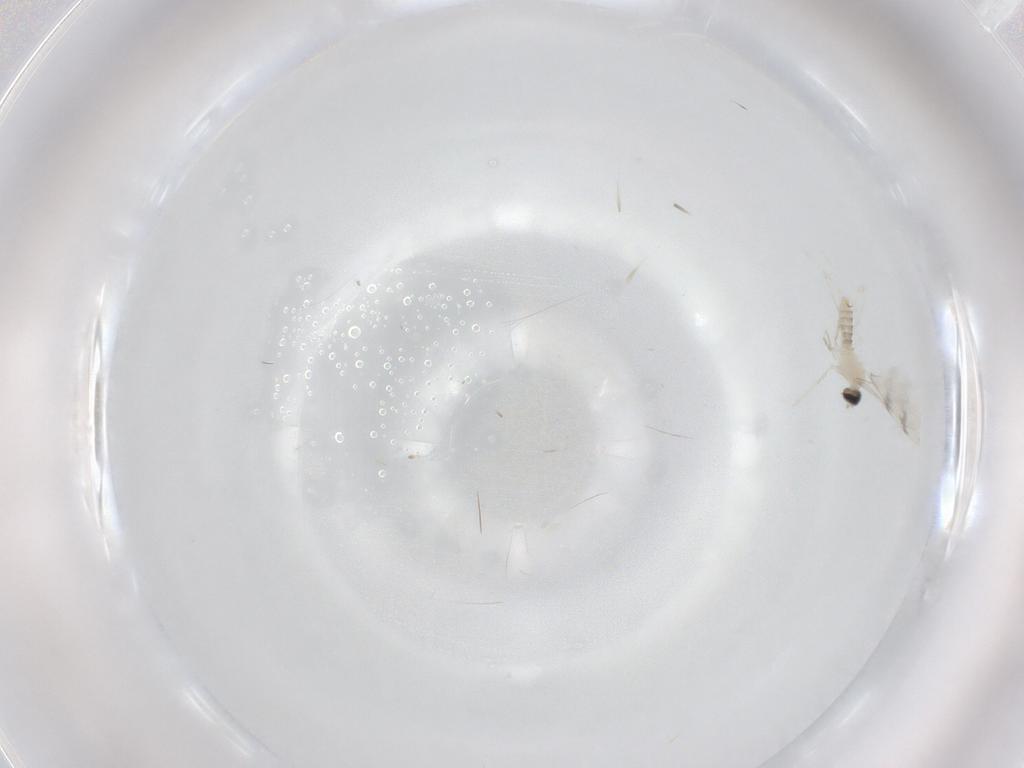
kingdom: Animalia
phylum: Arthropoda
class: Insecta
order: Diptera
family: Cecidomyiidae
